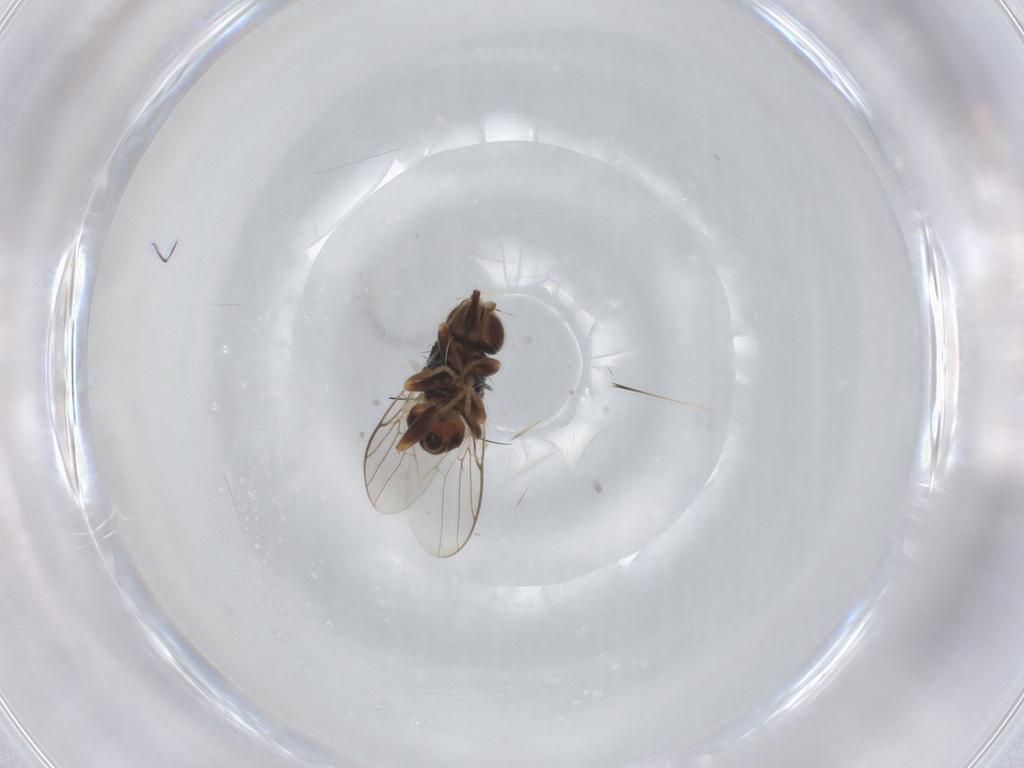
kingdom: Animalia
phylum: Arthropoda
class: Insecta
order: Diptera
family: Chloropidae
